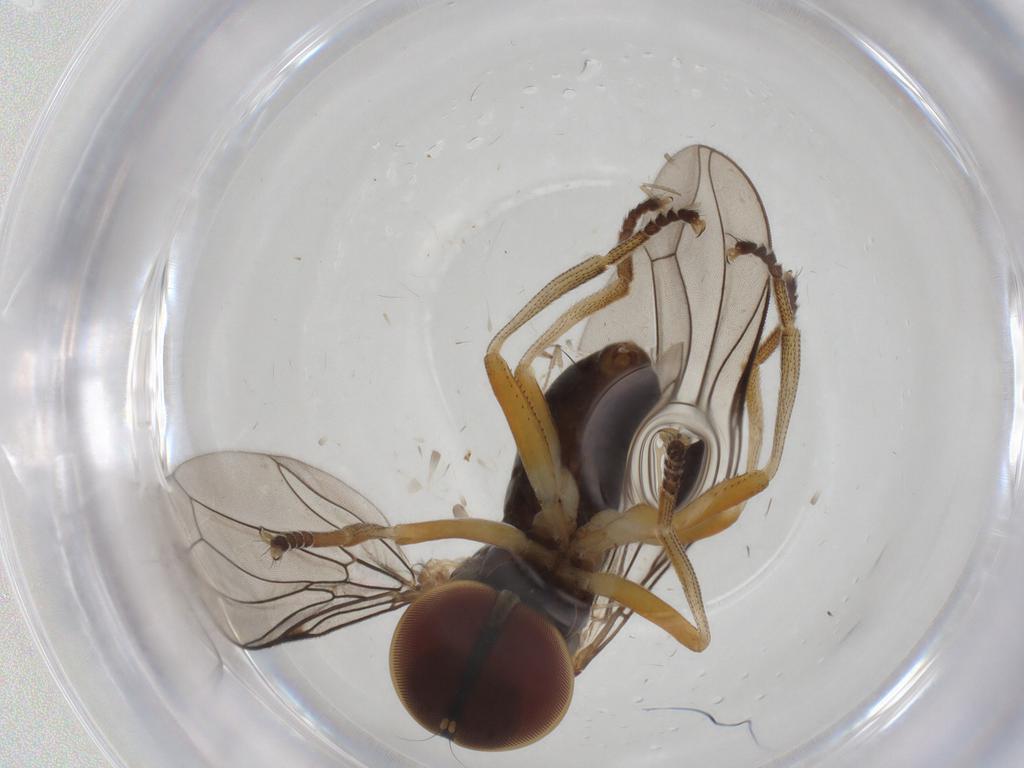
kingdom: Animalia
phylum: Arthropoda
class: Insecta
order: Diptera
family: Pipunculidae
